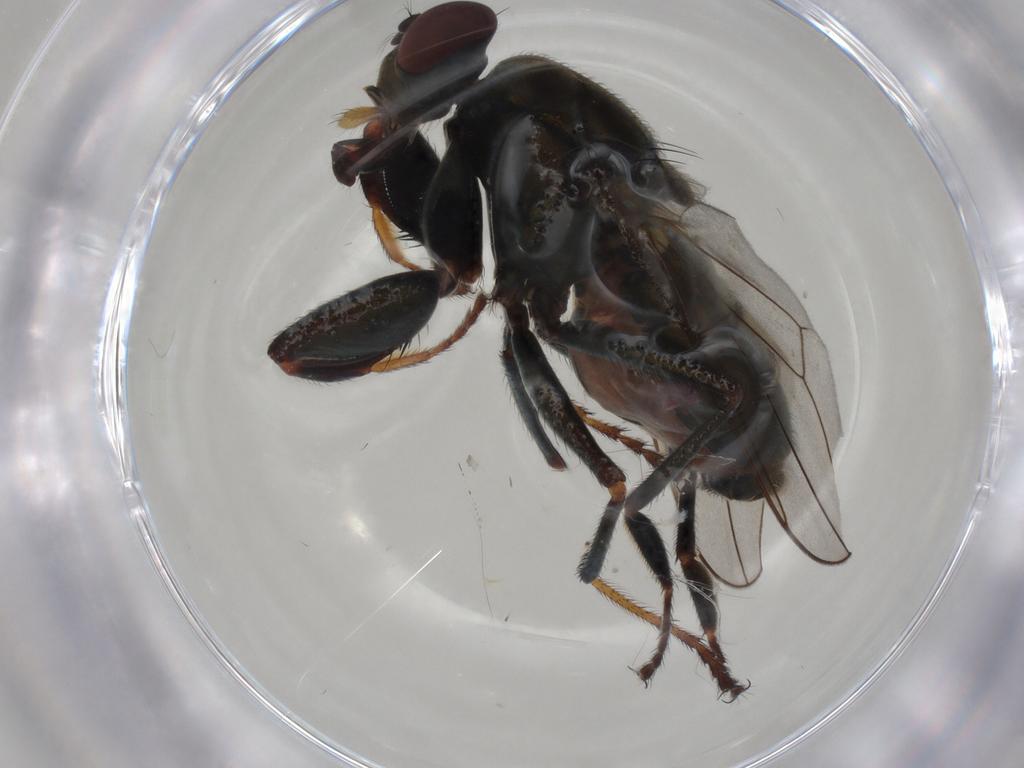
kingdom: Animalia
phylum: Arthropoda
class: Insecta
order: Diptera
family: Ephydridae
